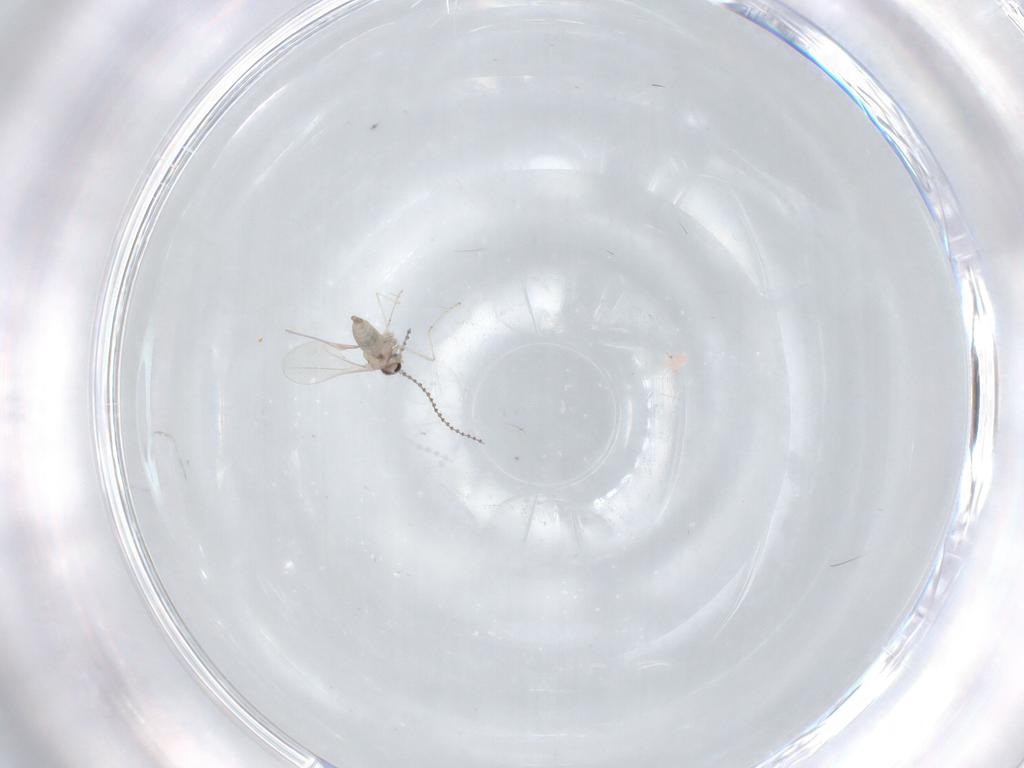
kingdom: Animalia
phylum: Arthropoda
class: Insecta
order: Diptera
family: Cecidomyiidae
